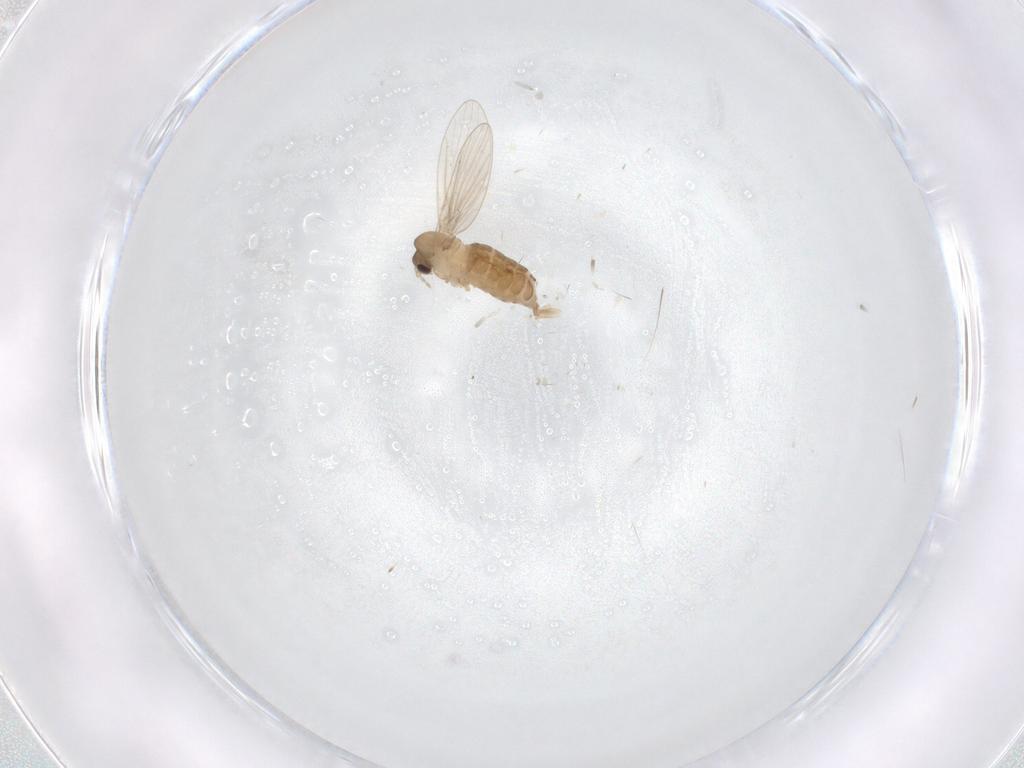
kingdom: Animalia
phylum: Arthropoda
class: Insecta
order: Diptera
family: Psychodidae
